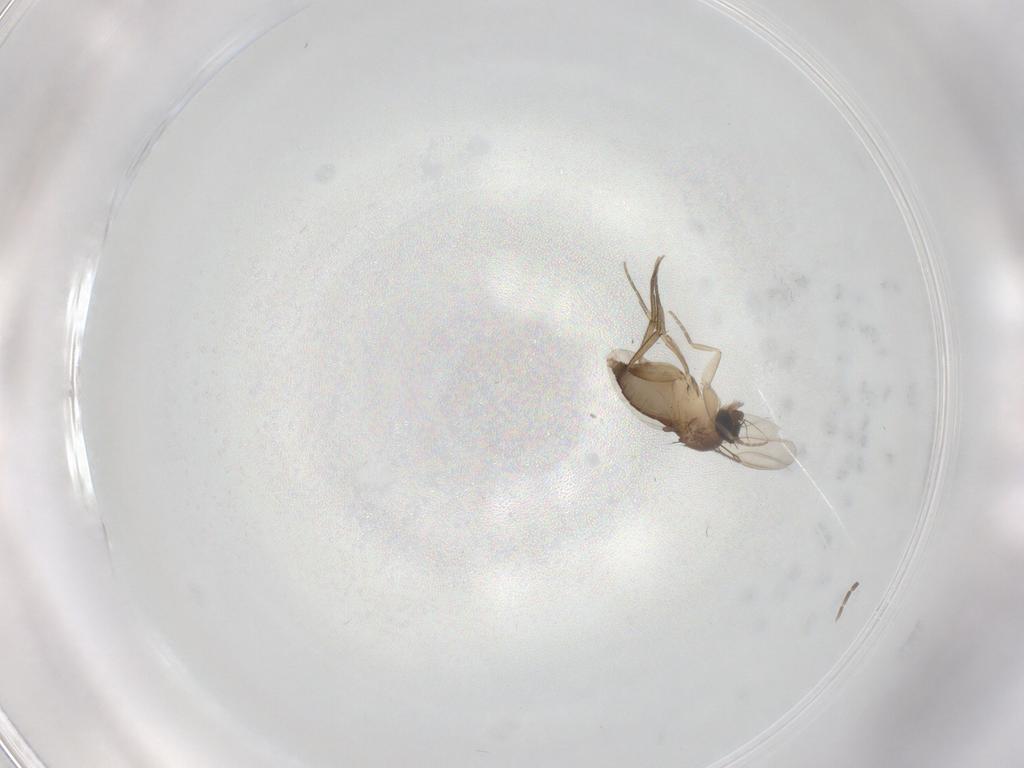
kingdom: Animalia
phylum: Arthropoda
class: Insecta
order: Diptera
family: Phoridae
